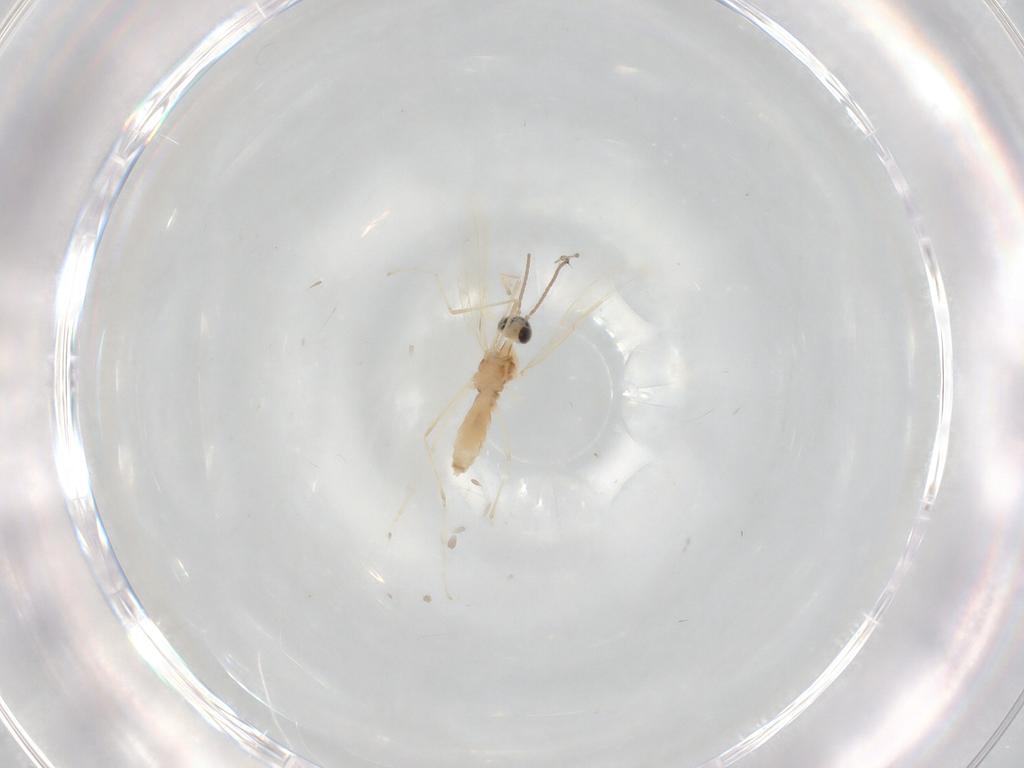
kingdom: Animalia
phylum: Arthropoda
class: Insecta
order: Diptera
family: Cecidomyiidae
